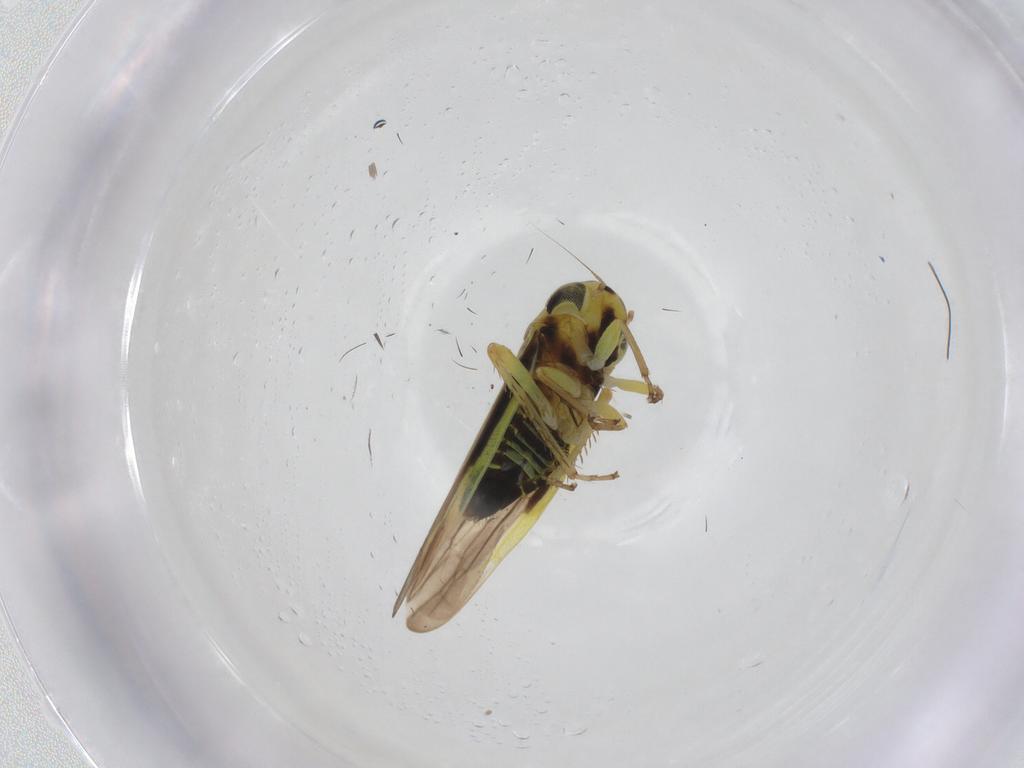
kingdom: Animalia
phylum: Arthropoda
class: Insecta
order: Hemiptera
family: Cicadellidae
